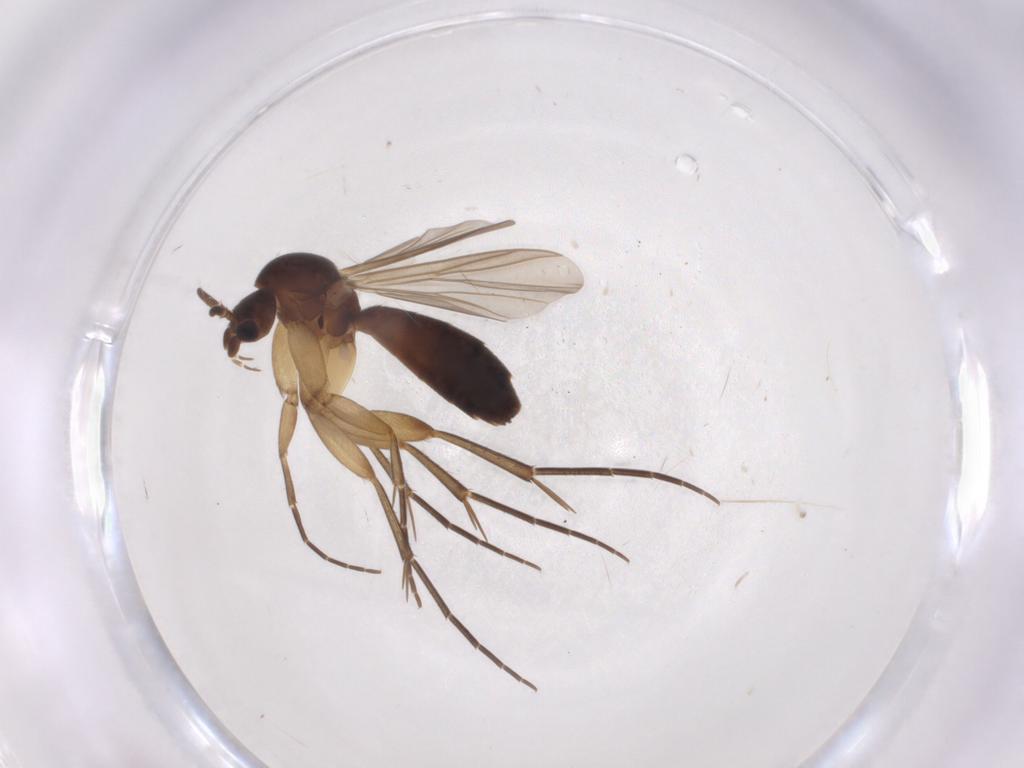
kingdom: Animalia
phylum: Arthropoda
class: Insecta
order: Diptera
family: Mycetophilidae
